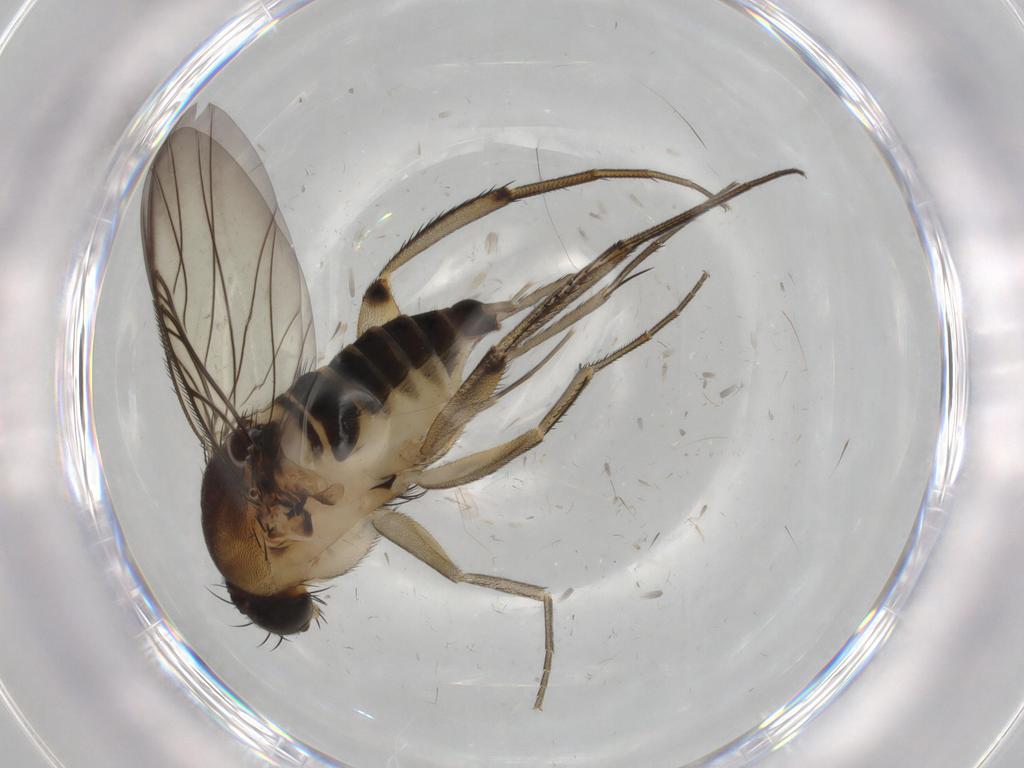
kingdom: Animalia
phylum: Arthropoda
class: Insecta
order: Diptera
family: Phoridae
